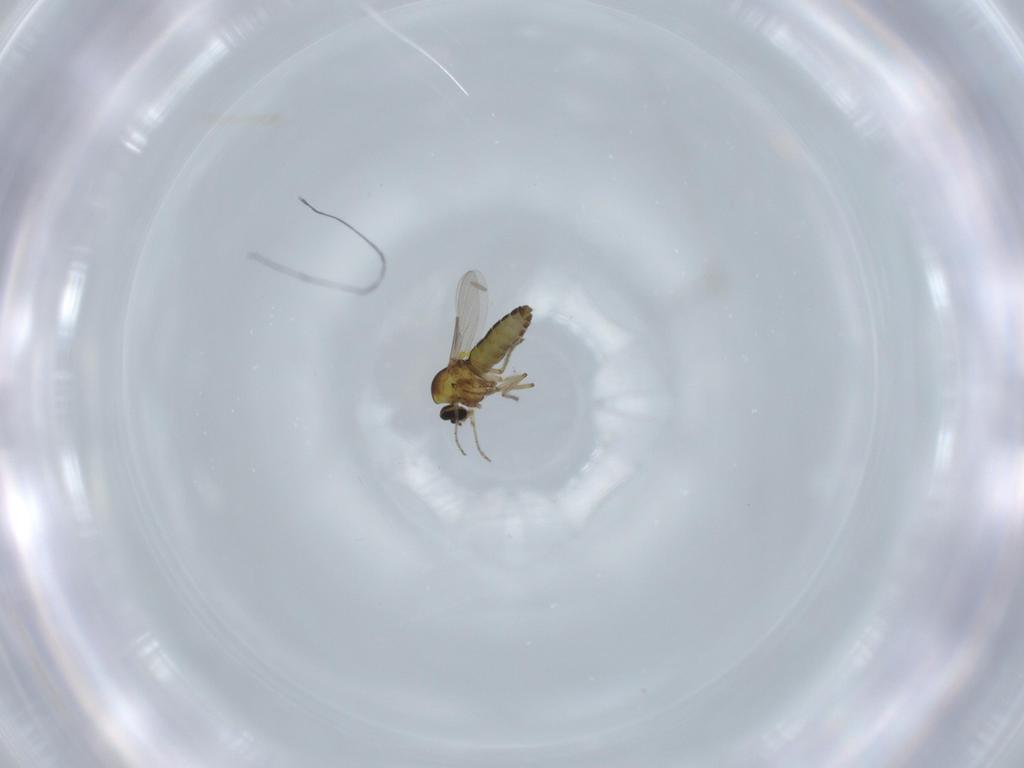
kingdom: Animalia
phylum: Arthropoda
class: Insecta
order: Diptera
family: Ceratopogonidae
